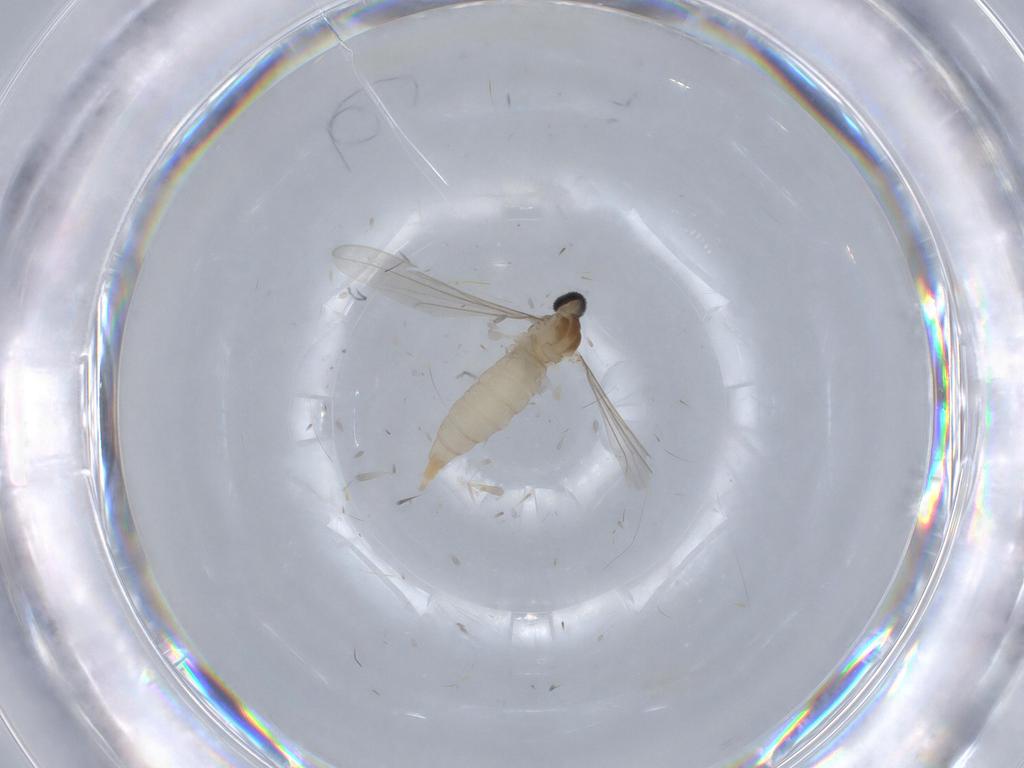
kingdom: Animalia
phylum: Arthropoda
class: Insecta
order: Diptera
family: Cecidomyiidae
